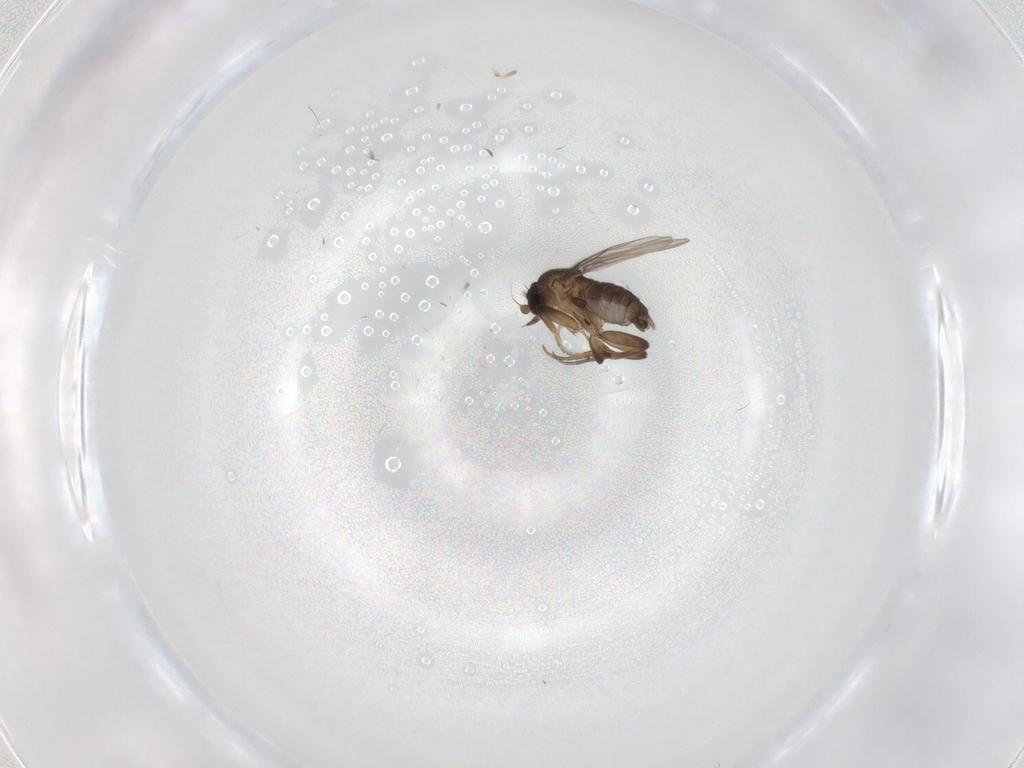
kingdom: Animalia
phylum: Arthropoda
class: Insecta
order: Diptera
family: Phoridae
